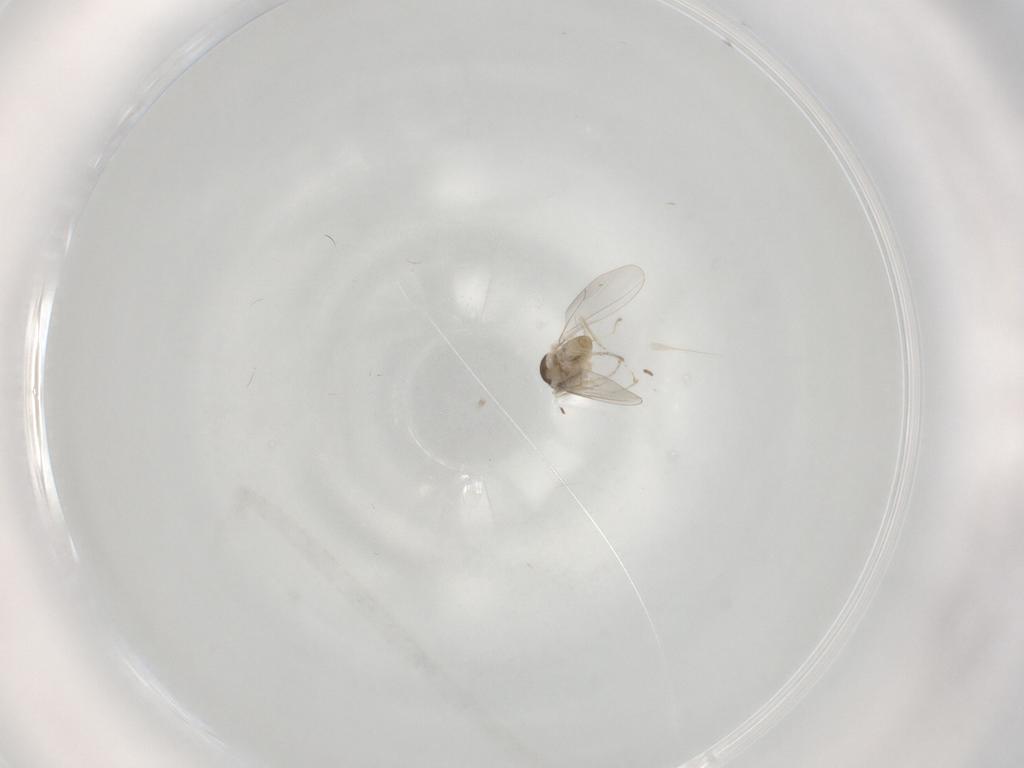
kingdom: Animalia
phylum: Arthropoda
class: Insecta
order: Diptera
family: Cecidomyiidae
